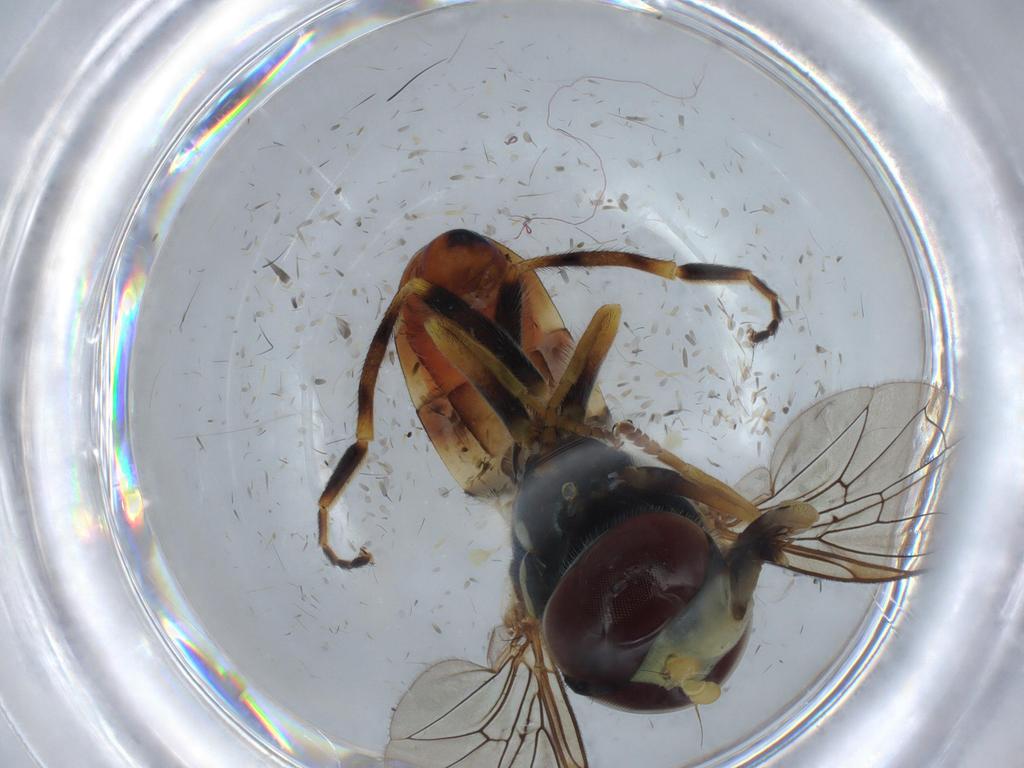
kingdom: Animalia
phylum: Arthropoda
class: Insecta
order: Diptera
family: Syrphidae
